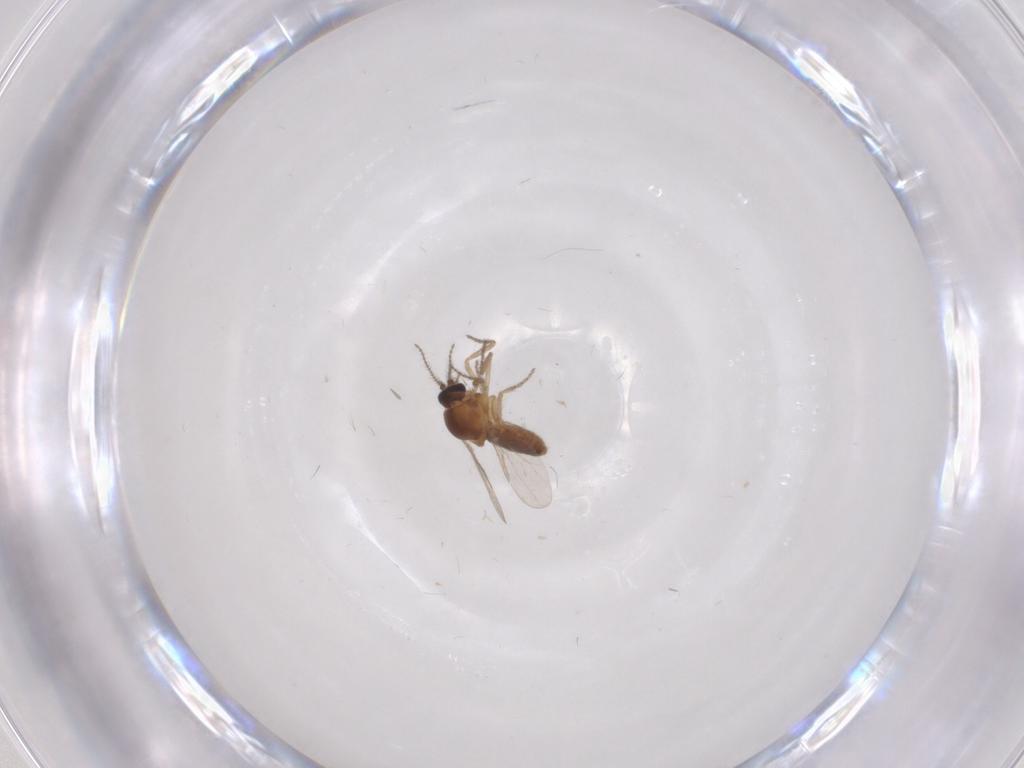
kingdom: Animalia
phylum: Arthropoda
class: Insecta
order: Diptera
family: Ceratopogonidae
